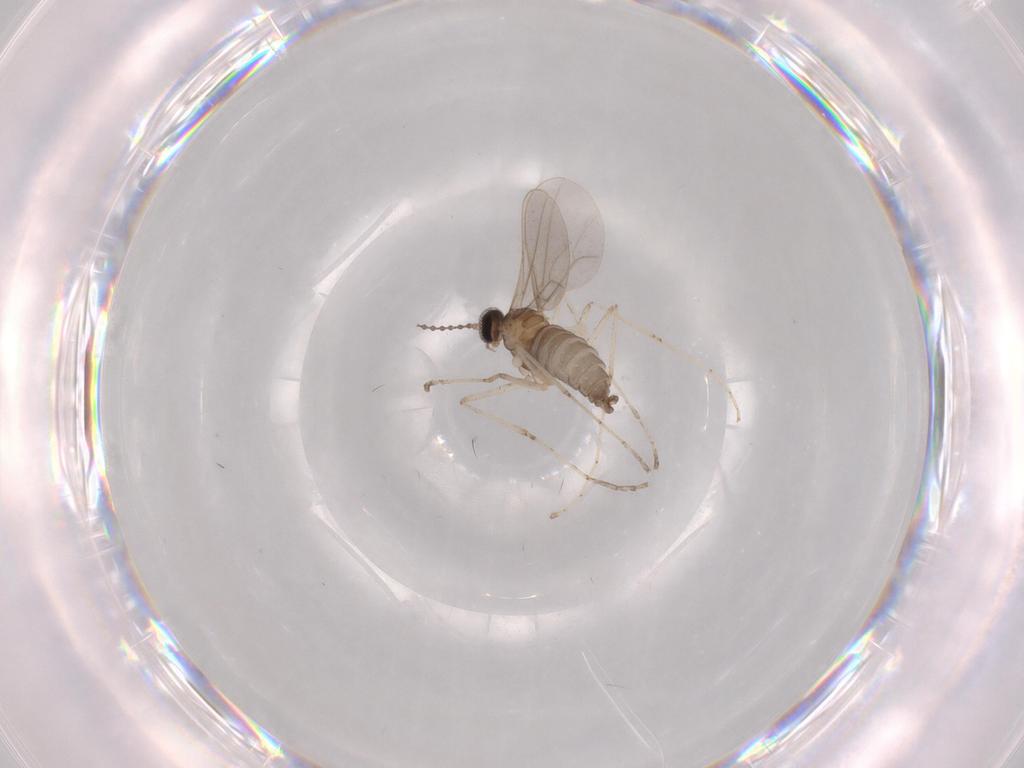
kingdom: Animalia
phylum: Arthropoda
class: Insecta
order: Diptera
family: Cecidomyiidae
